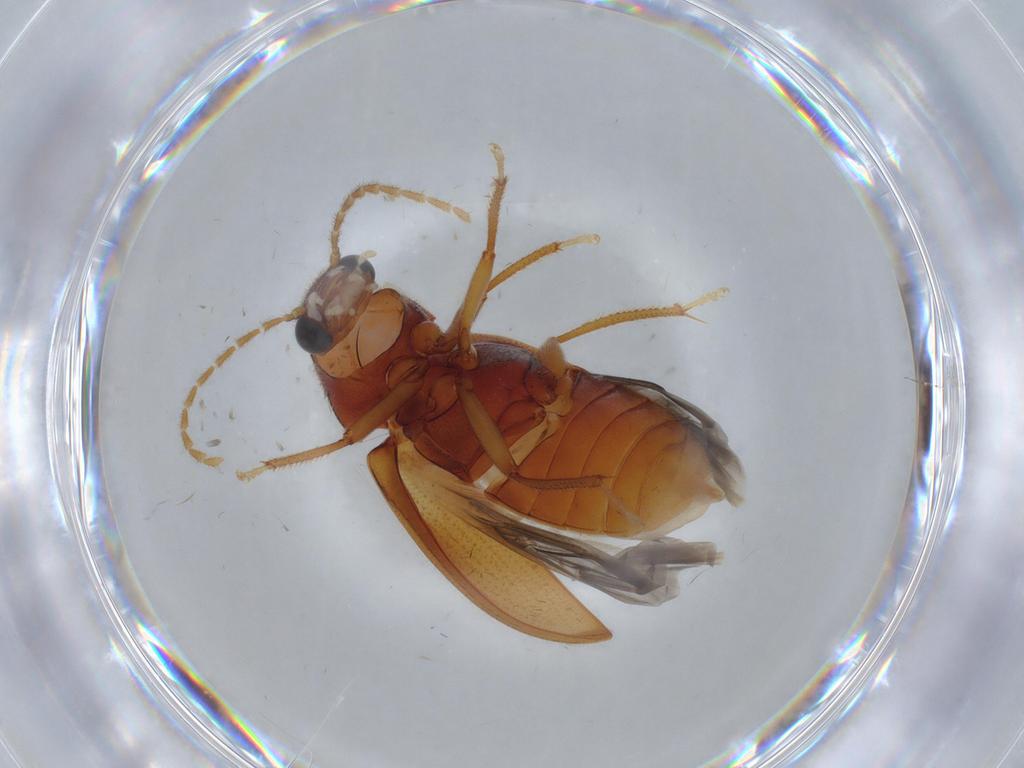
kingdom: Animalia
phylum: Arthropoda
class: Insecta
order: Coleoptera
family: Ptilodactylidae
